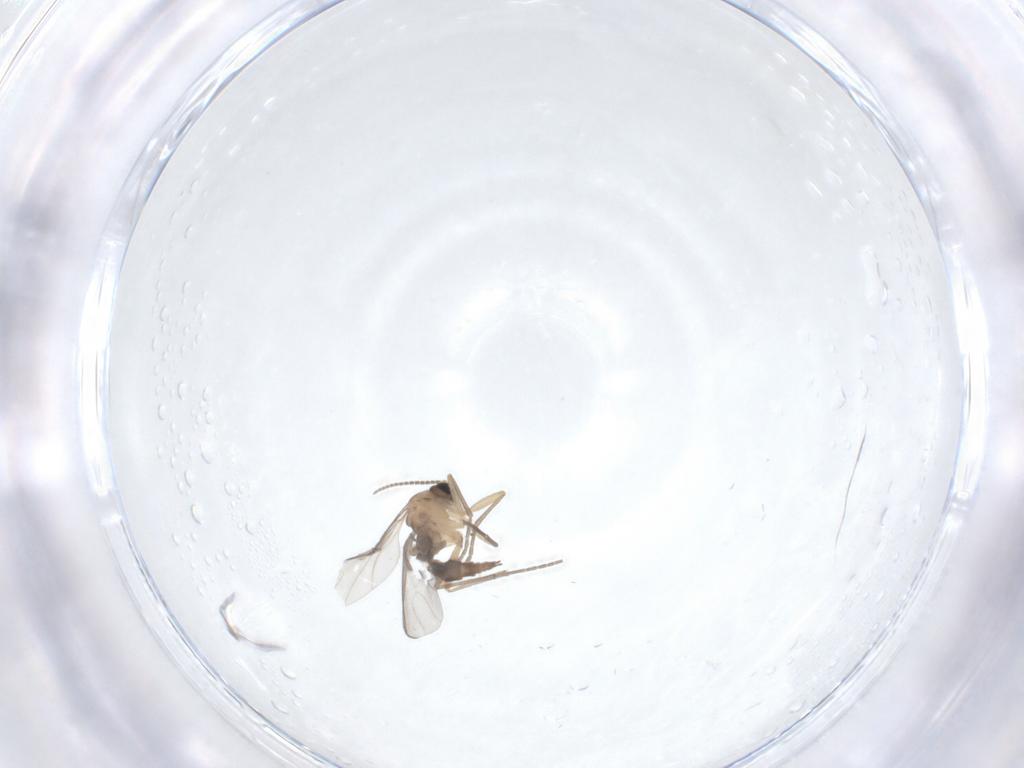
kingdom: Animalia
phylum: Arthropoda
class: Insecta
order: Diptera
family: Sciaridae
